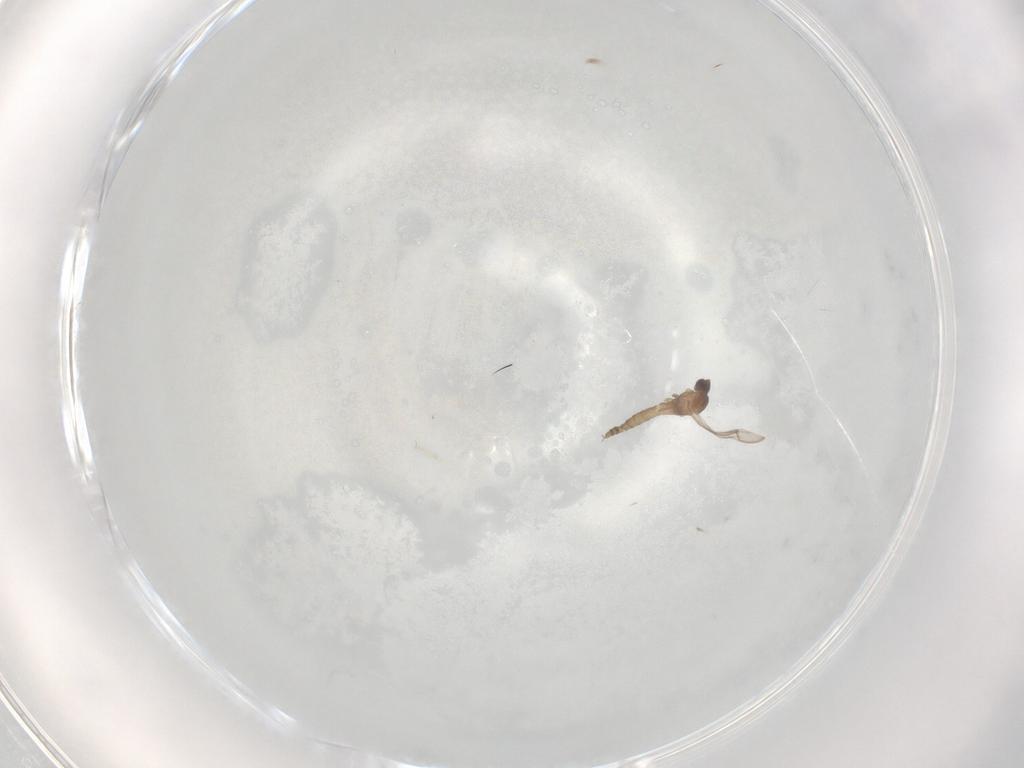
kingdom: Animalia
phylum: Arthropoda
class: Insecta
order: Diptera
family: Cecidomyiidae
